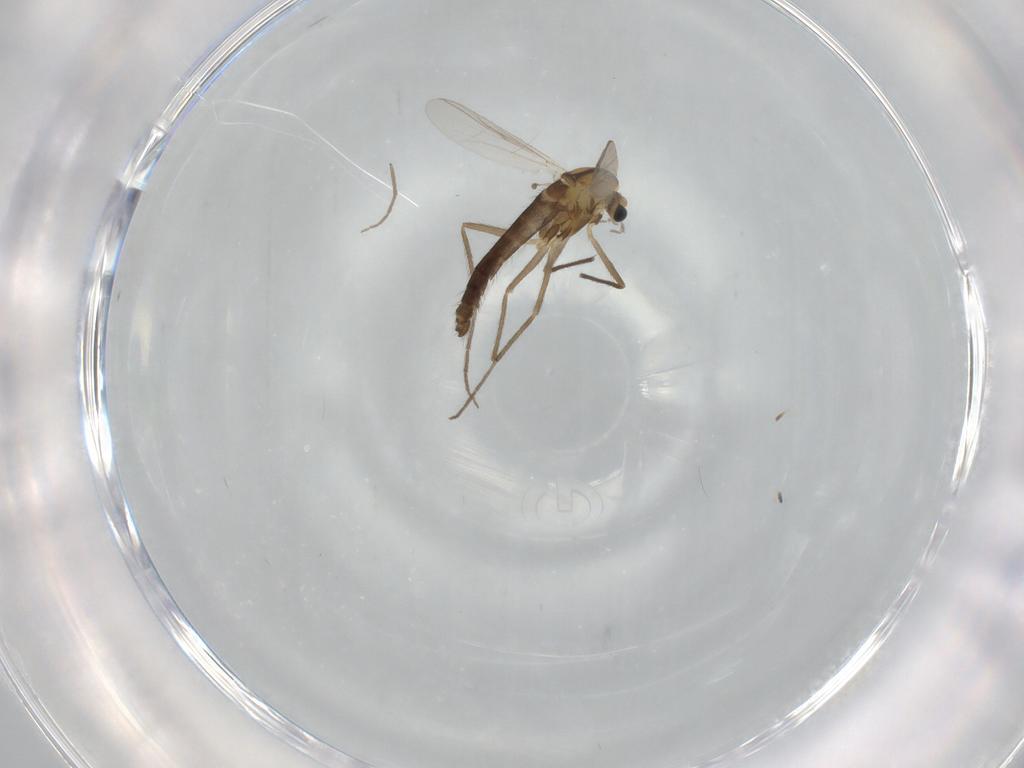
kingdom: Animalia
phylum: Arthropoda
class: Insecta
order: Diptera
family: Chironomidae
